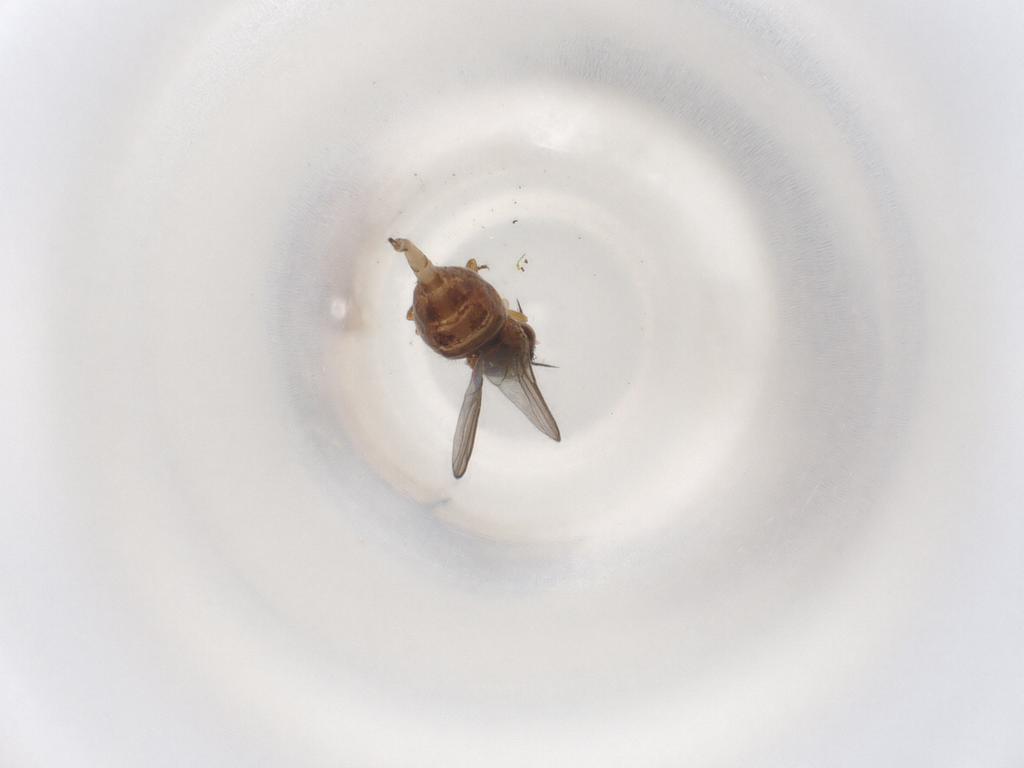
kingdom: Animalia
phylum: Arthropoda
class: Insecta
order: Diptera
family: Chloropidae
